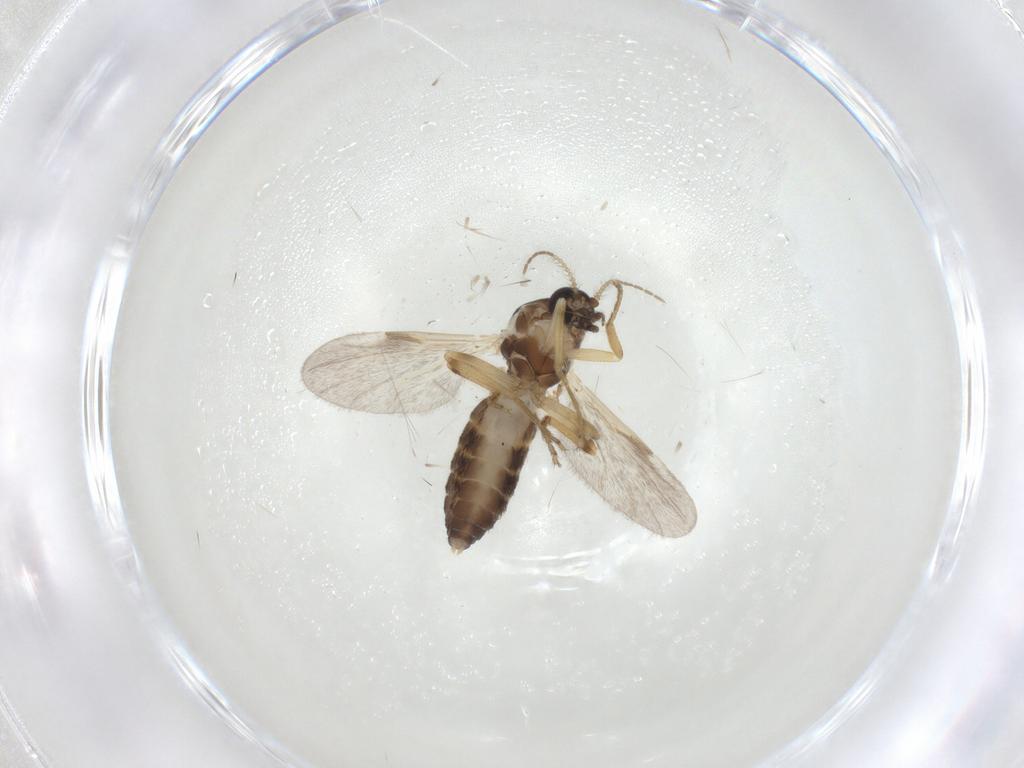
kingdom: Animalia
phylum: Arthropoda
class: Insecta
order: Diptera
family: Ceratopogonidae
